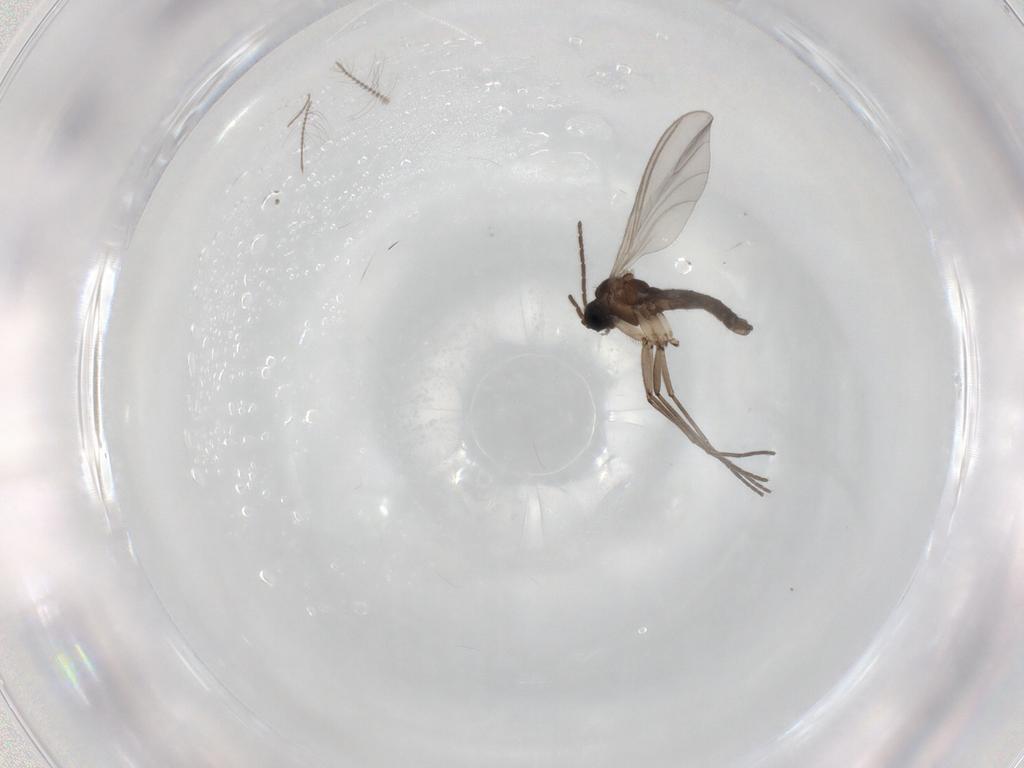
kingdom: Animalia
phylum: Arthropoda
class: Insecta
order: Diptera
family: Sciaridae
